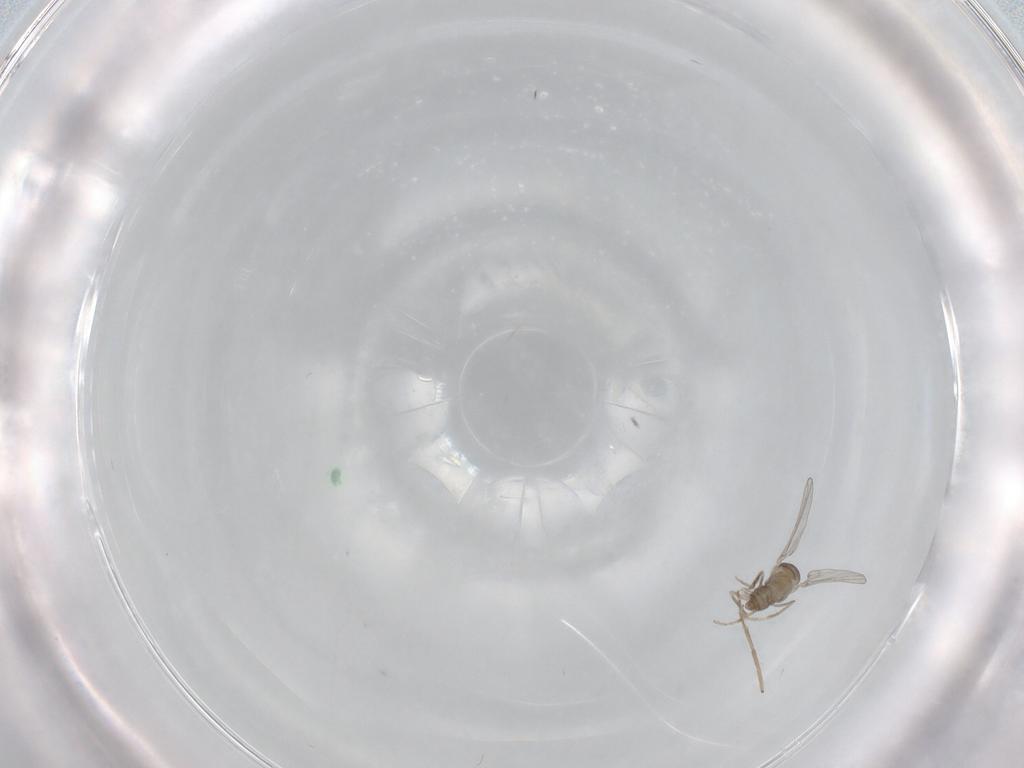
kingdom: Animalia
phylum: Arthropoda
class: Insecta
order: Diptera
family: Cecidomyiidae
